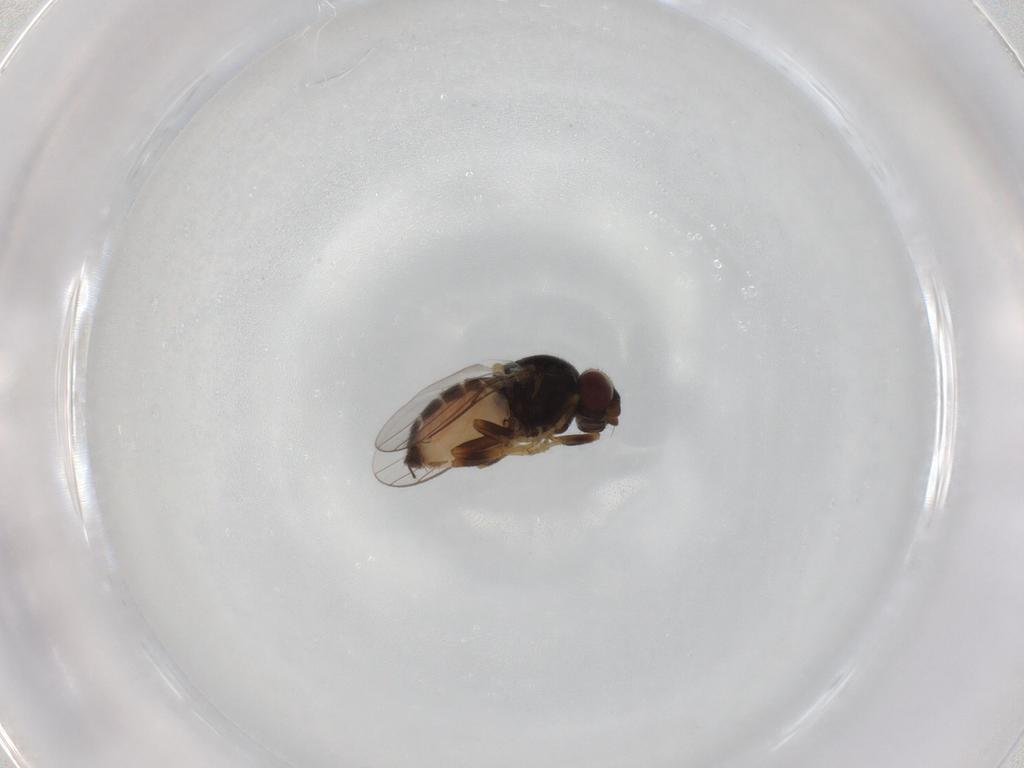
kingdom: Animalia
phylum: Arthropoda
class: Insecta
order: Diptera
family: Chloropidae
